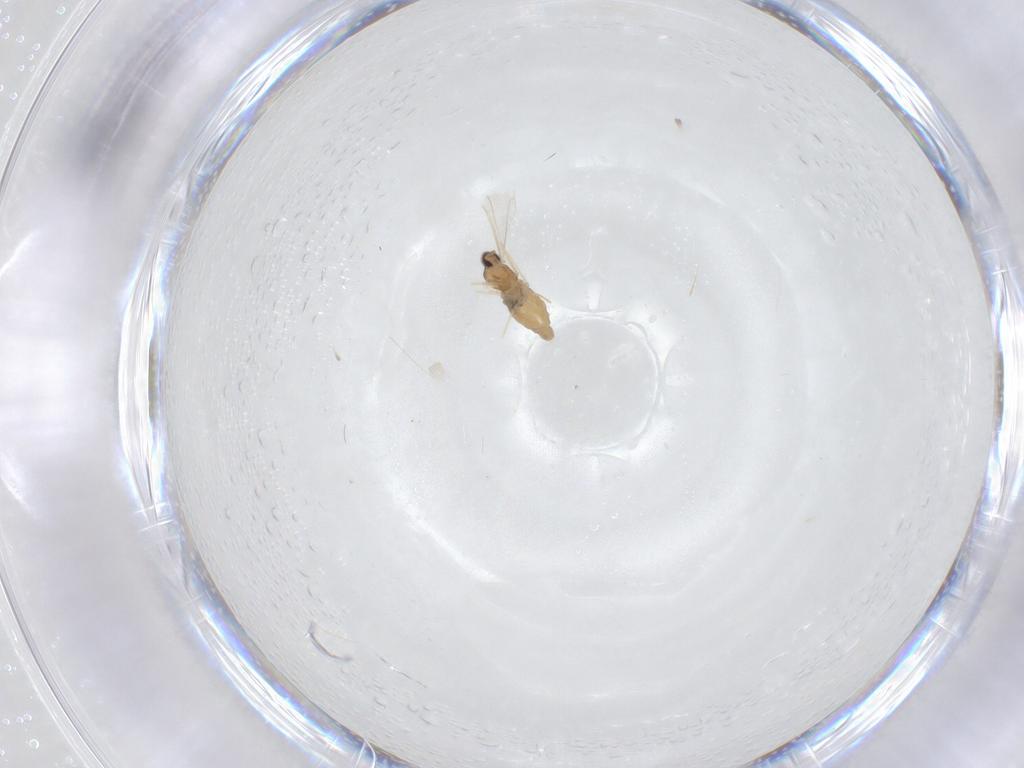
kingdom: Animalia
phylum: Arthropoda
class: Insecta
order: Diptera
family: Cecidomyiidae
